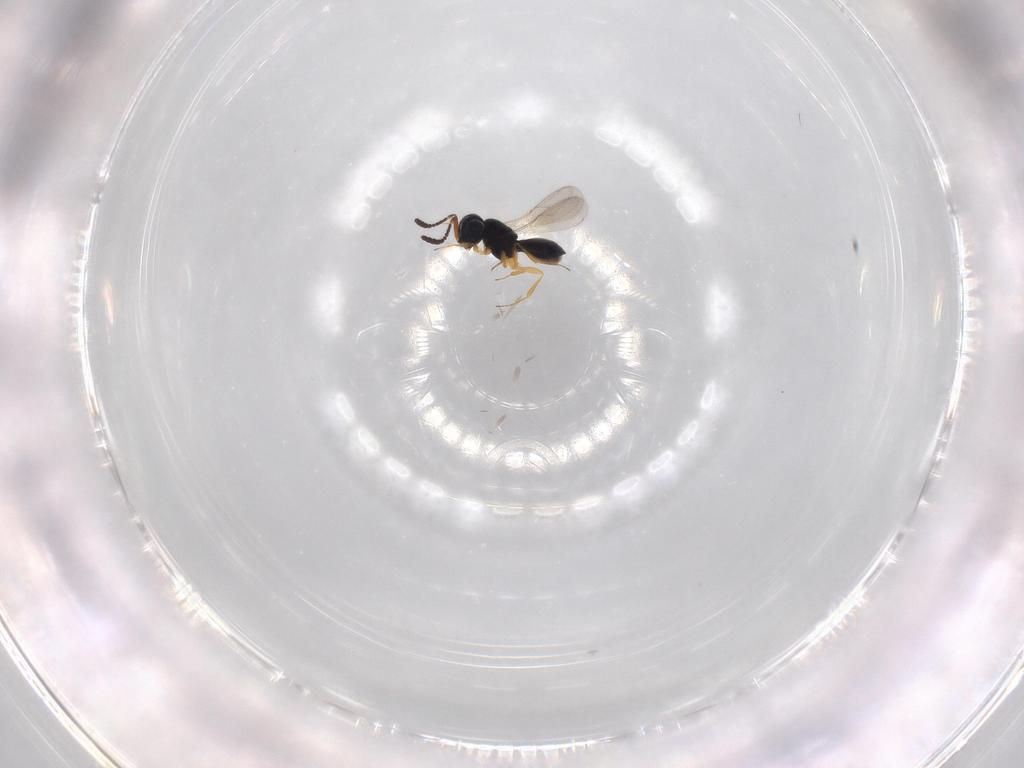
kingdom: Animalia
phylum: Arthropoda
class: Insecta
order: Hymenoptera
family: Scelionidae
